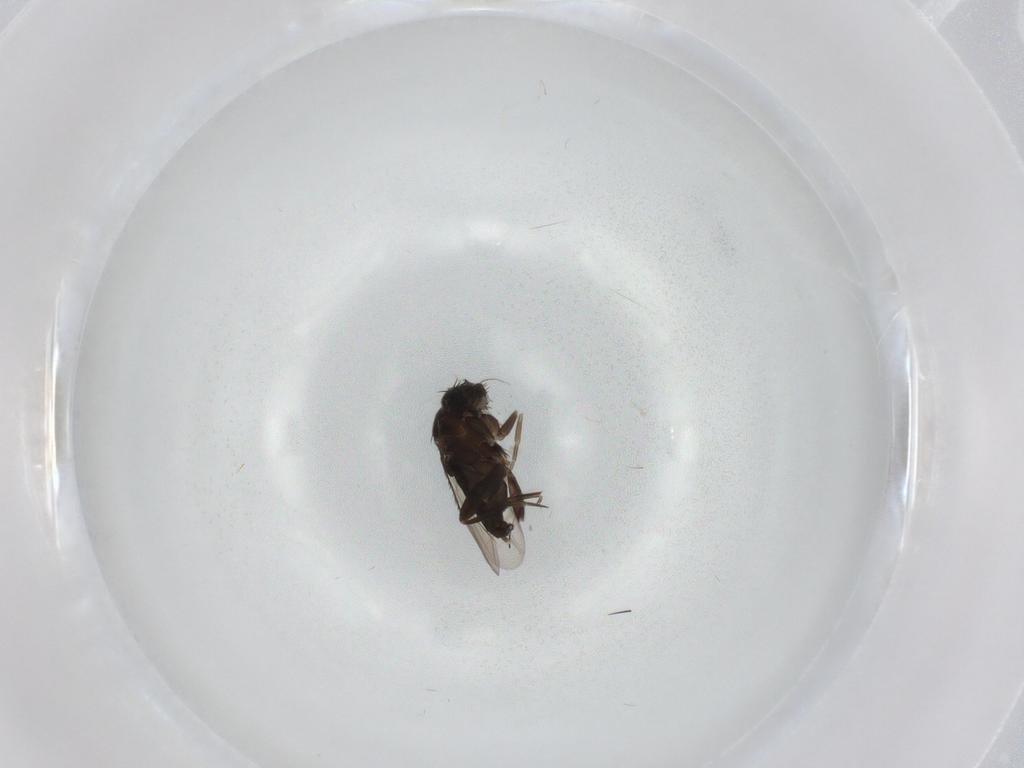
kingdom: Animalia
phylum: Arthropoda
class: Insecta
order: Diptera
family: Phoridae
